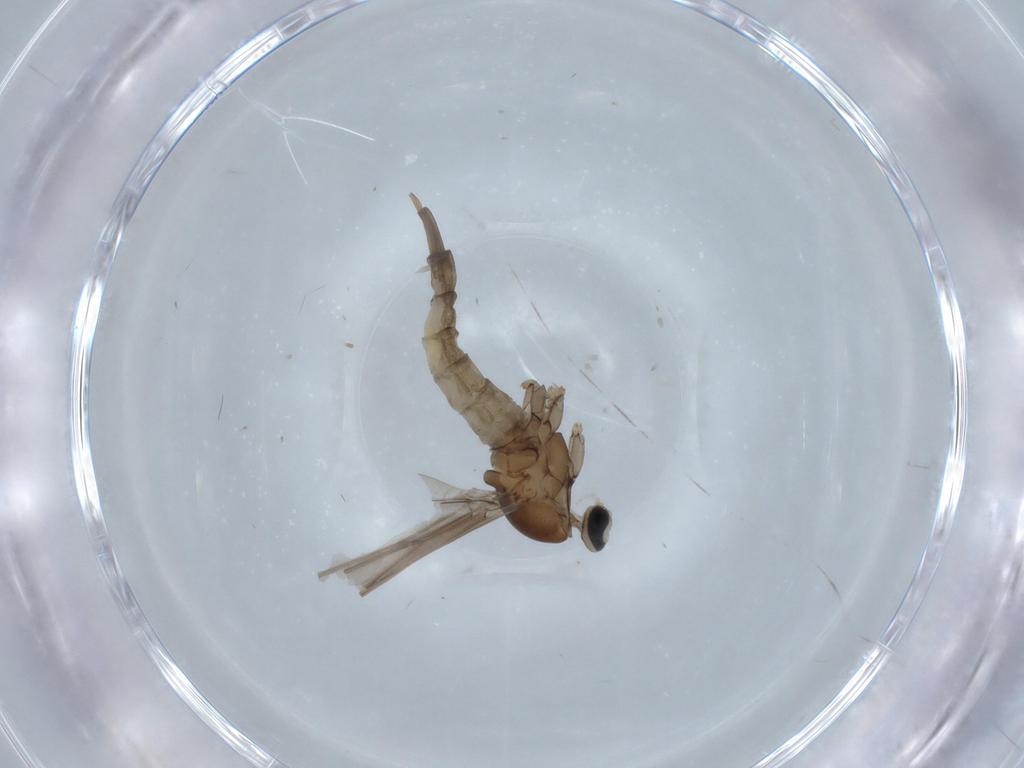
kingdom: Animalia
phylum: Arthropoda
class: Insecta
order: Diptera
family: Cecidomyiidae
